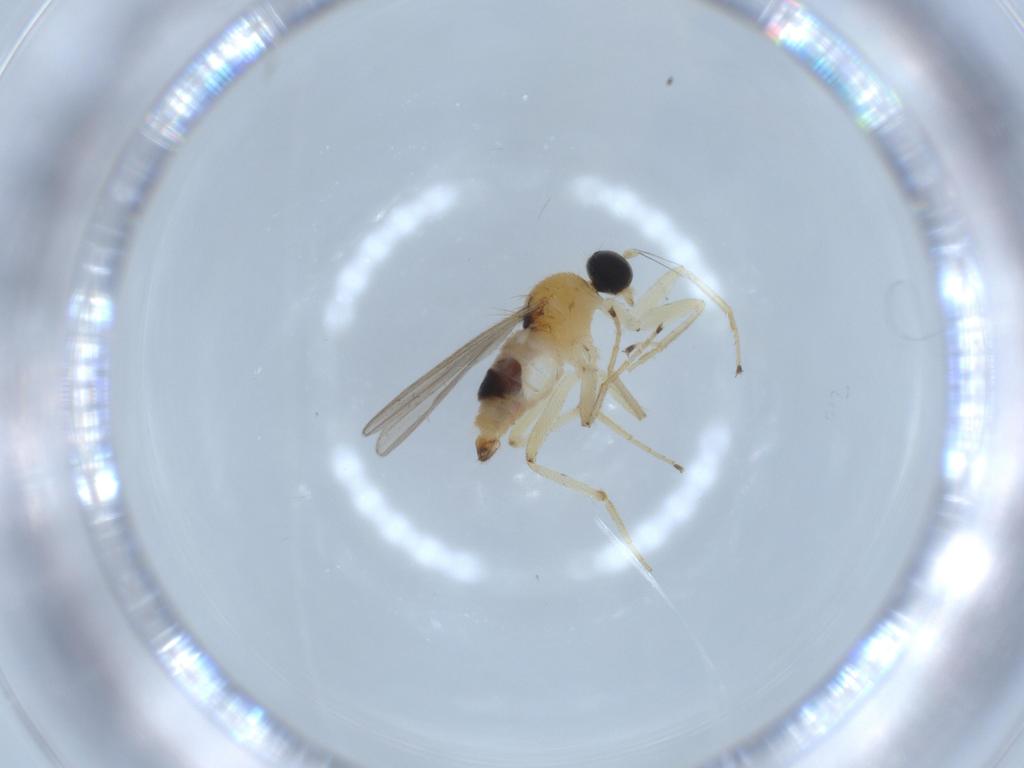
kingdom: Animalia
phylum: Arthropoda
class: Insecta
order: Diptera
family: Hybotidae
